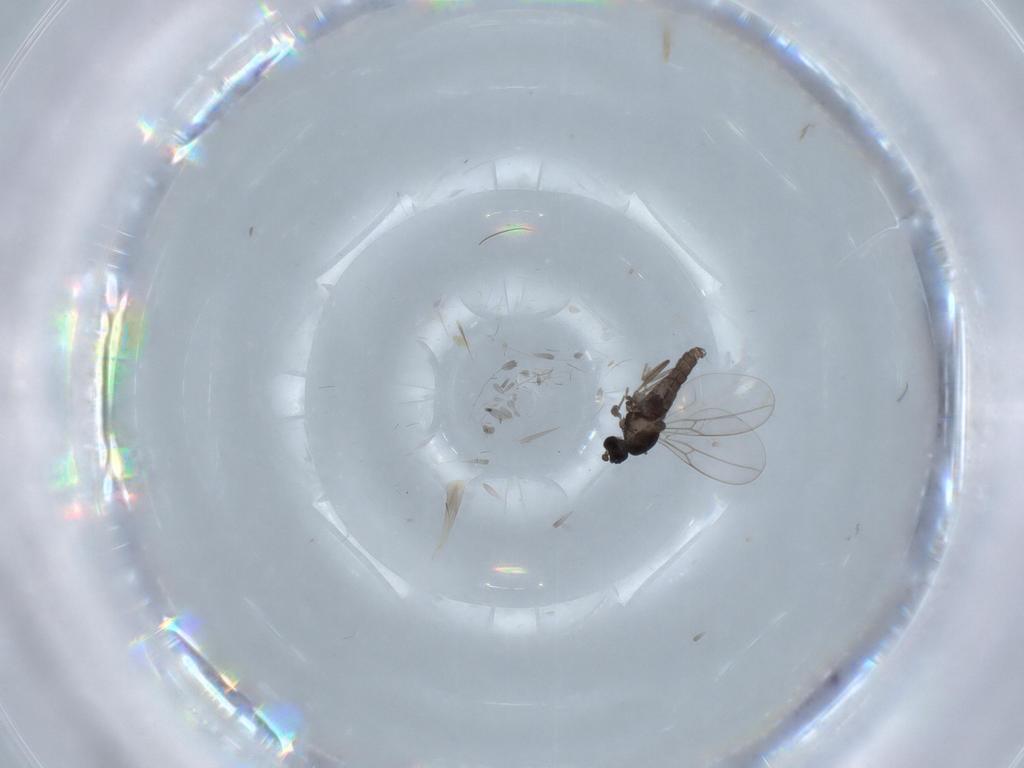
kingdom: Animalia
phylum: Arthropoda
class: Insecta
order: Diptera
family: Cecidomyiidae
